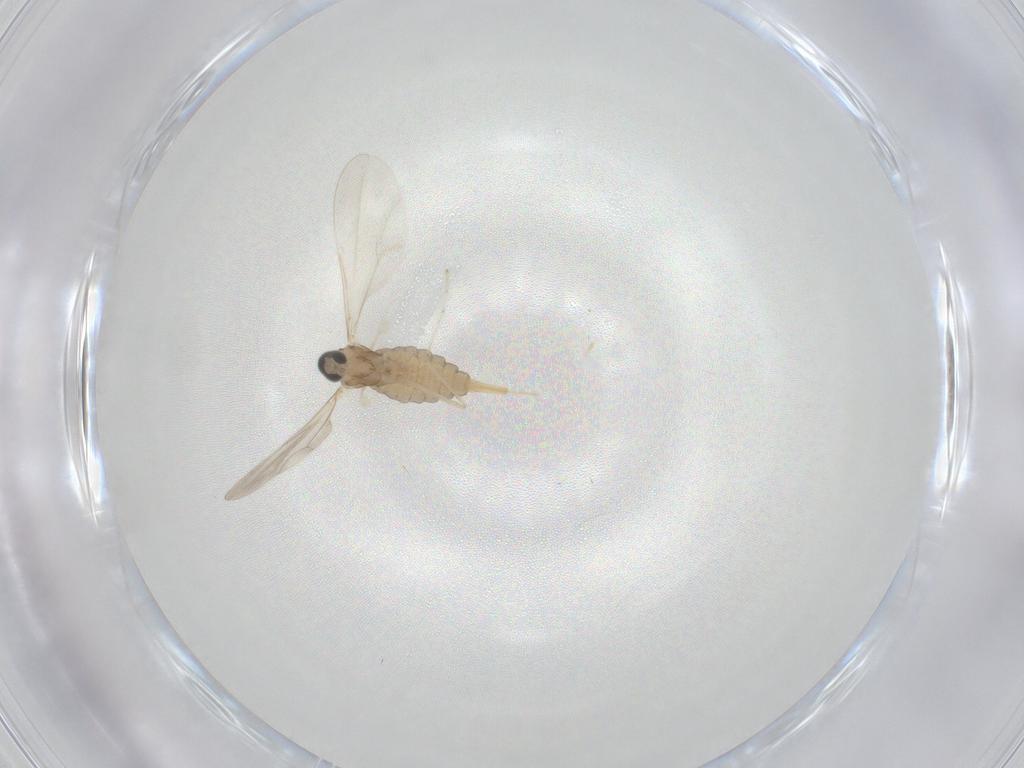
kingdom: Animalia
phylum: Arthropoda
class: Insecta
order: Diptera
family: Cecidomyiidae
